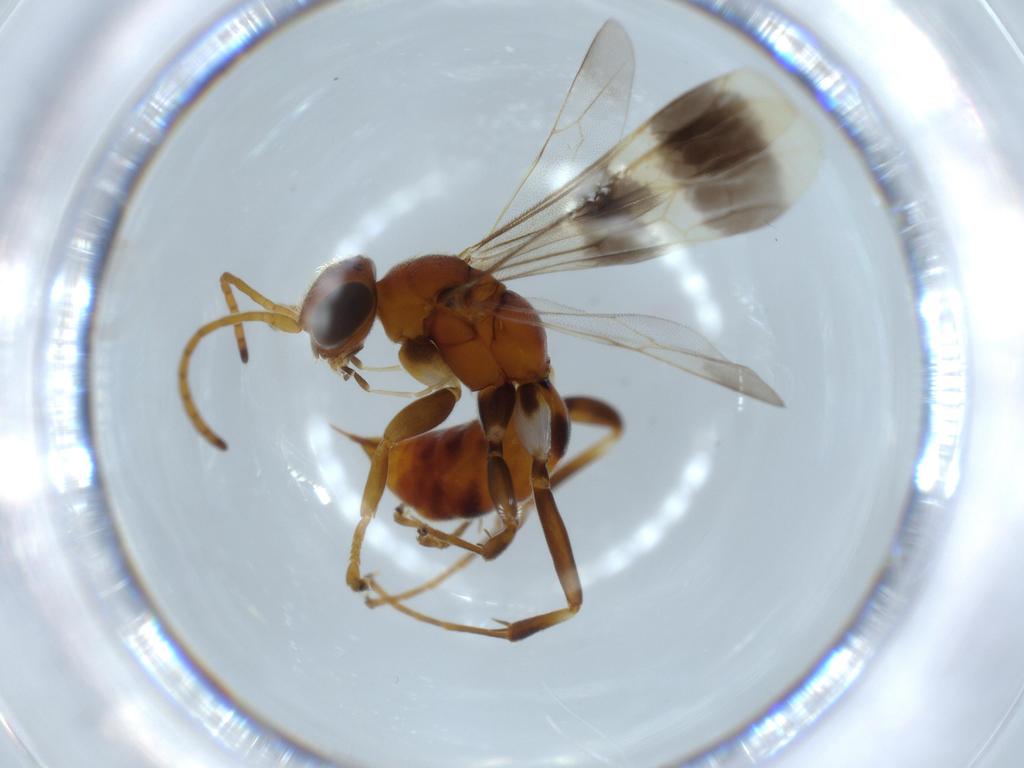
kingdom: Animalia
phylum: Arthropoda
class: Insecta
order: Hymenoptera
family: Pompilidae
